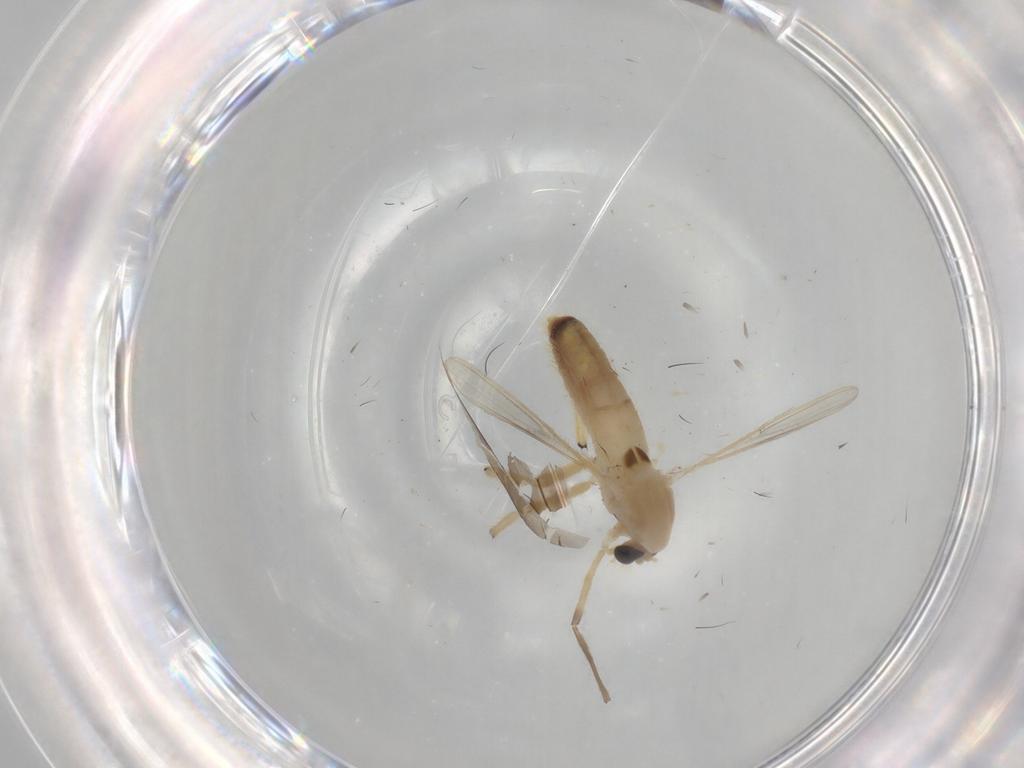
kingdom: Animalia
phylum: Arthropoda
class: Insecta
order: Diptera
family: Chironomidae
